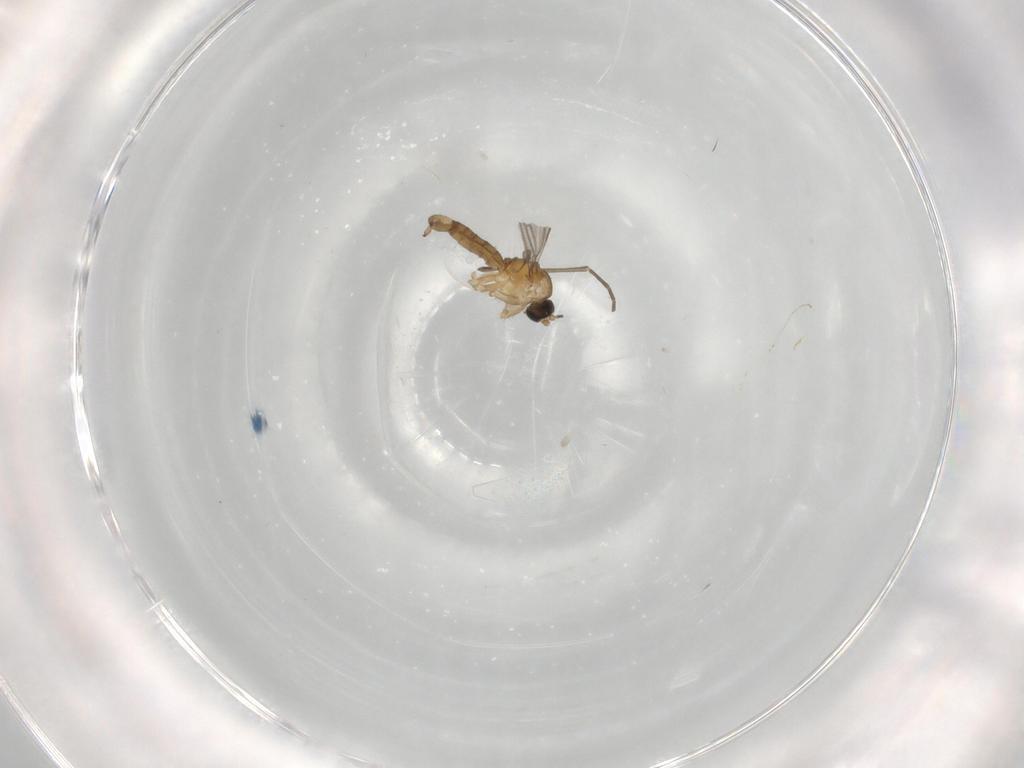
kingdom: Animalia
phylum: Arthropoda
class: Insecta
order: Diptera
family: Cecidomyiidae
